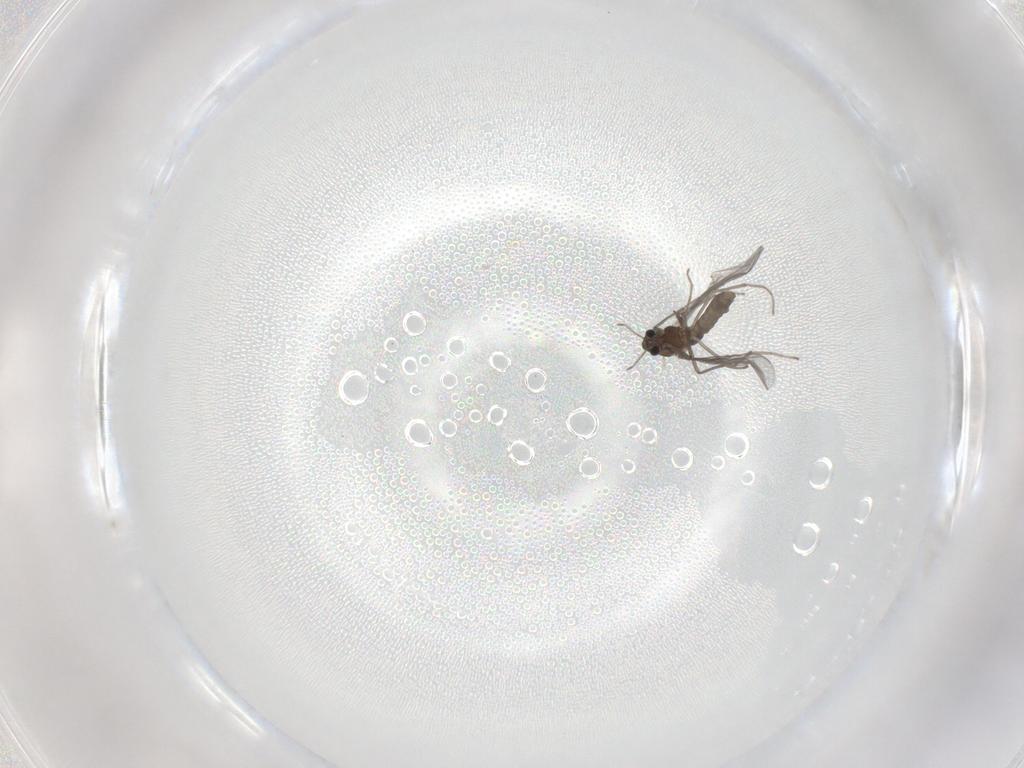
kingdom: Animalia
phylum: Arthropoda
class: Insecta
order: Diptera
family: Chironomidae
